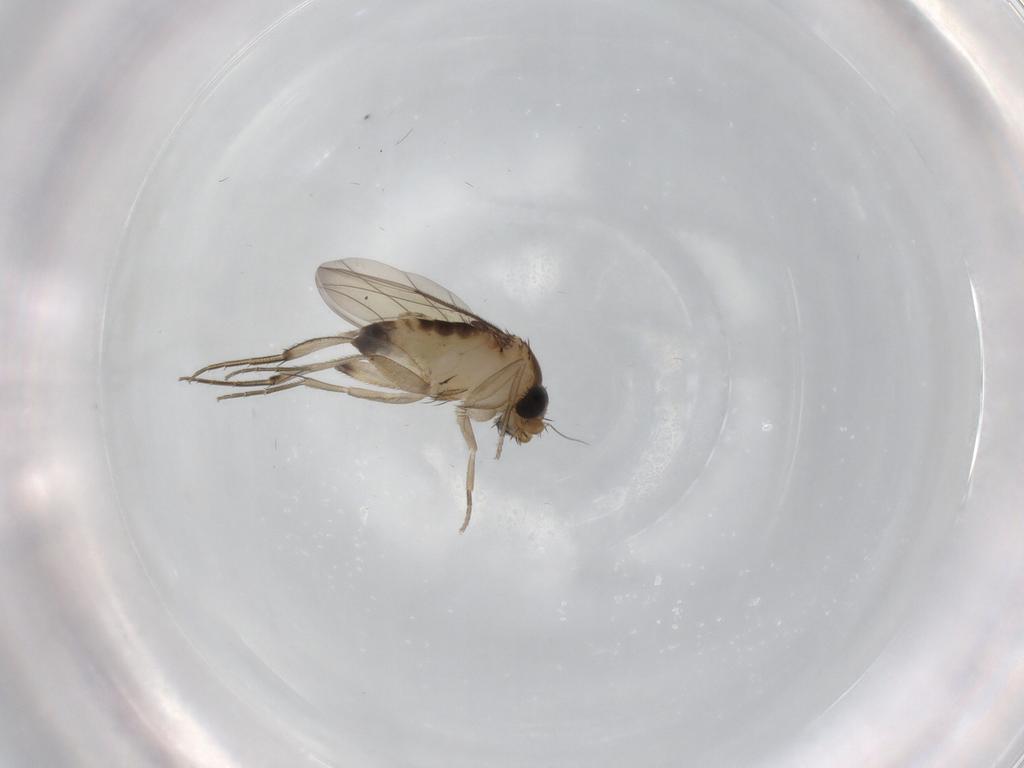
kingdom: Animalia
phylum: Arthropoda
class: Insecta
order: Diptera
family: Phoridae
